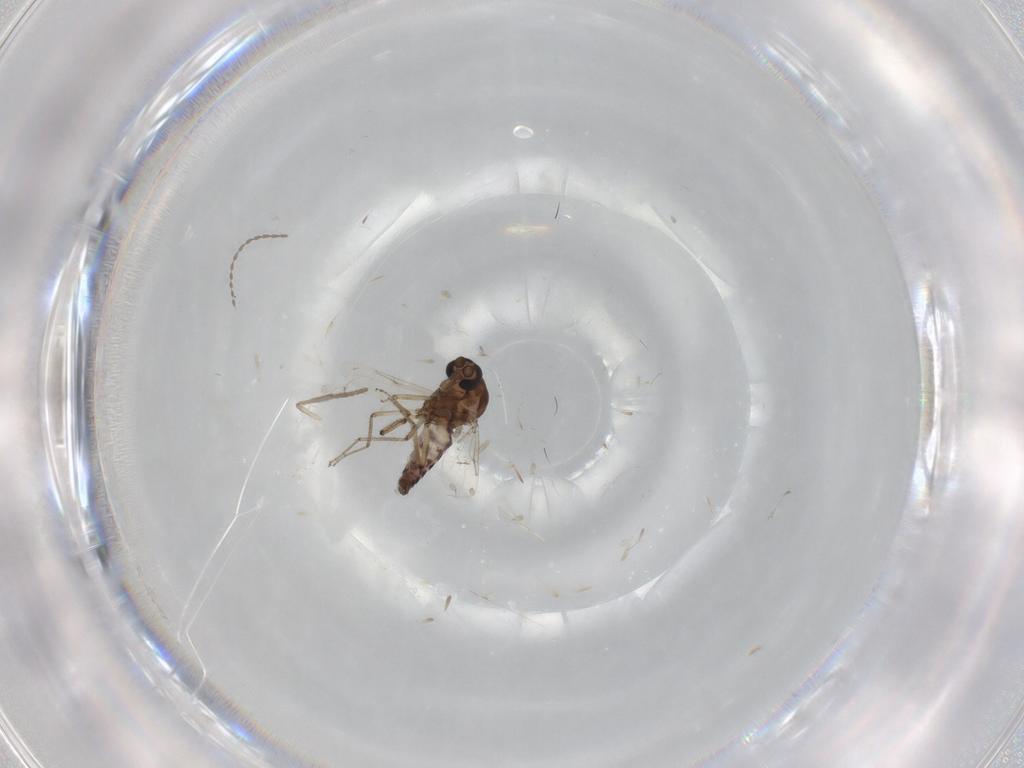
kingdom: Animalia
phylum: Arthropoda
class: Insecta
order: Diptera
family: Ceratopogonidae
